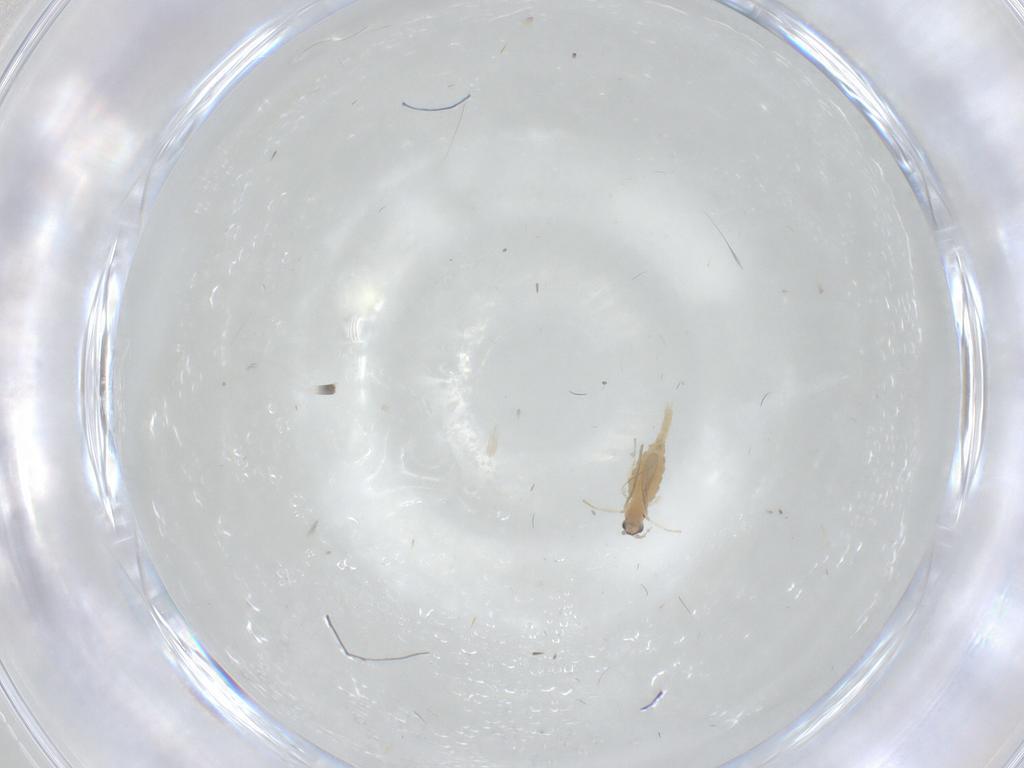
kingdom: Animalia
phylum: Arthropoda
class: Insecta
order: Diptera
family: Cecidomyiidae
